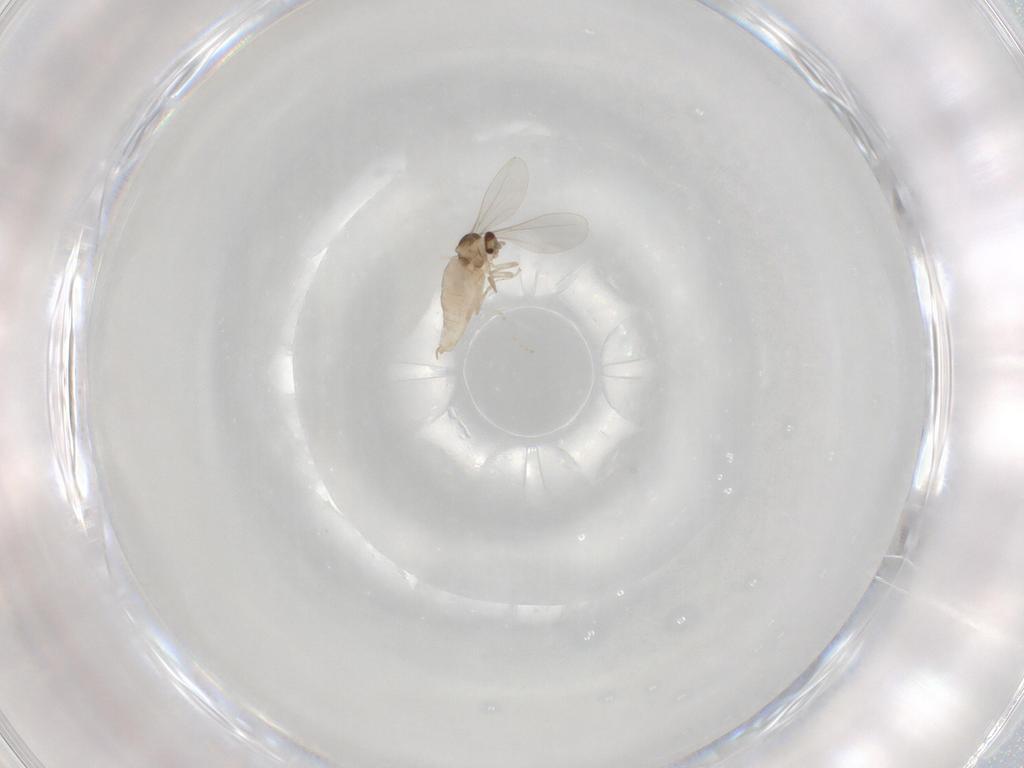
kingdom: Animalia
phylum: Arthropoda
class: Insecta
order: Diptera
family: Cecidomyiidae
